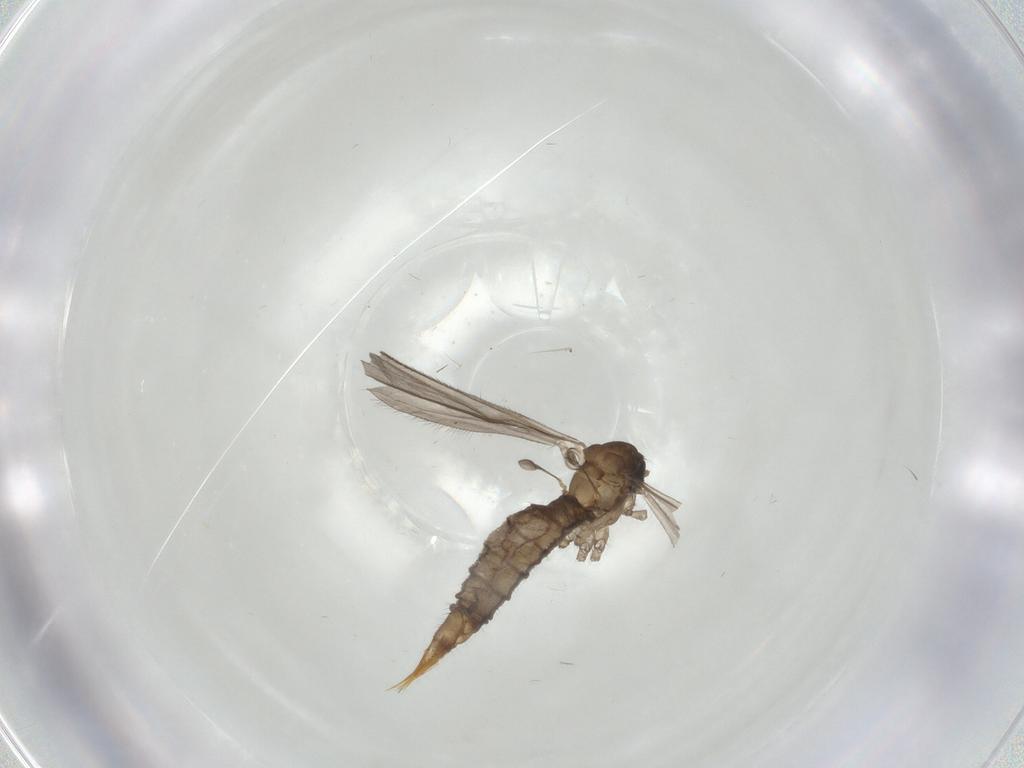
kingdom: Animalia
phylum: Arthropoda
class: Insecta
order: Diptera
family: Limoniidae
